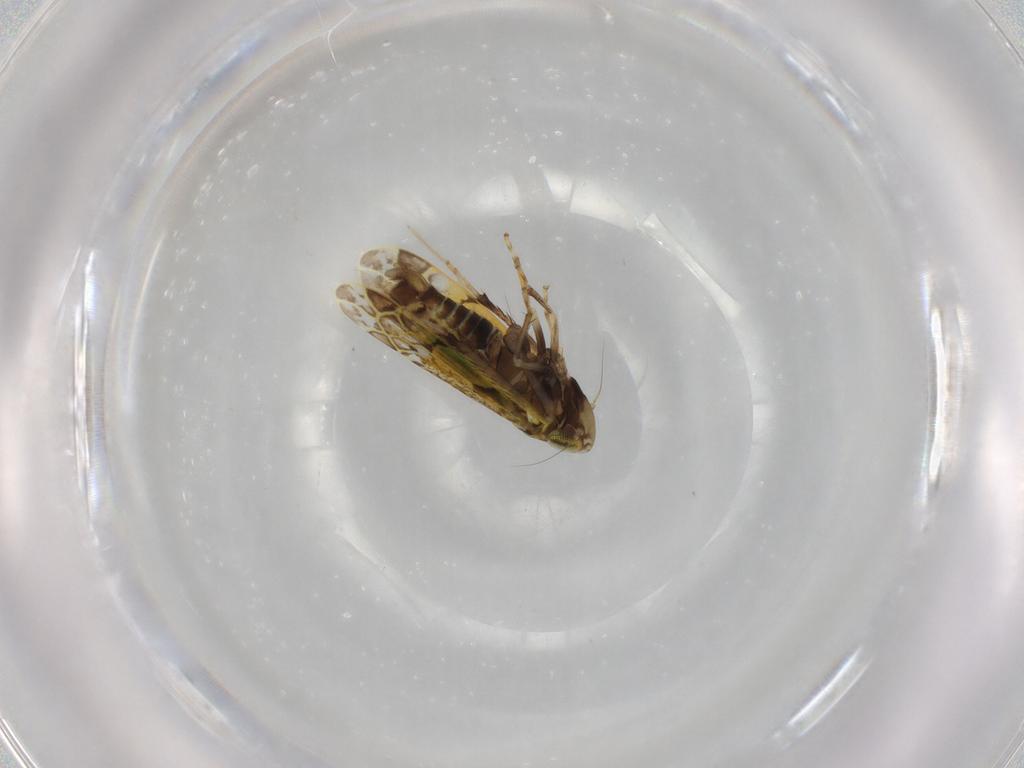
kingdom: Animalia
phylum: Arthropoda
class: Insecta
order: Hemiptera
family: Cicadellidae
